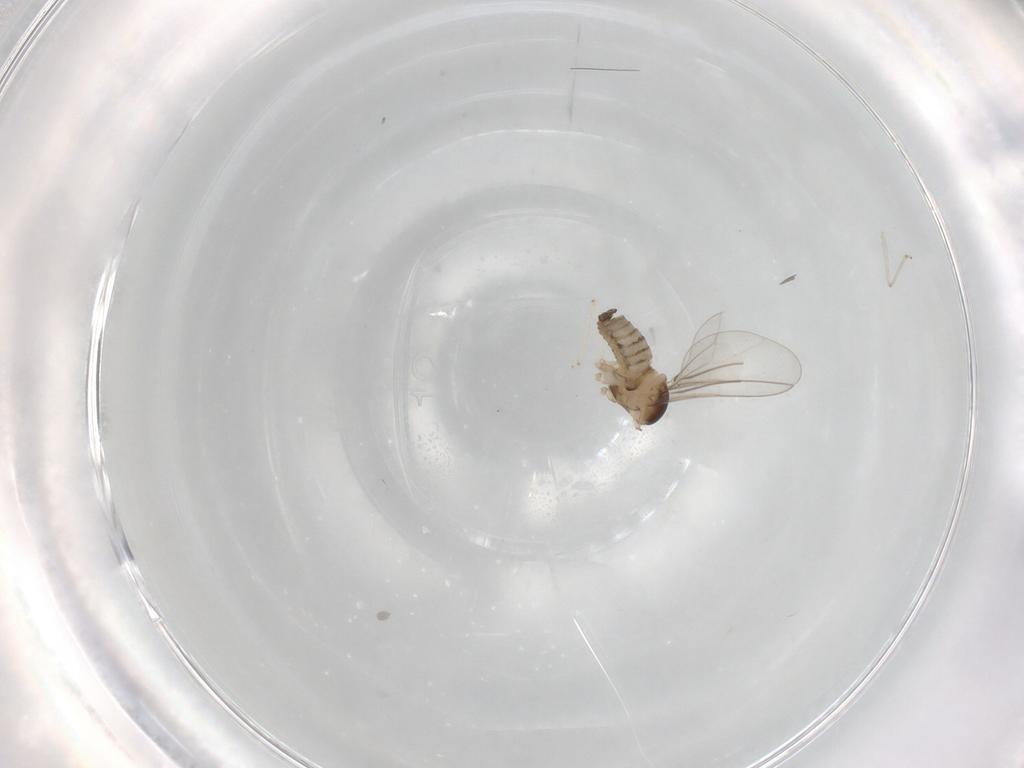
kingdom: Animalia
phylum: Arthropoda
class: Insecta
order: Diptera
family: Cecidomyiidae
